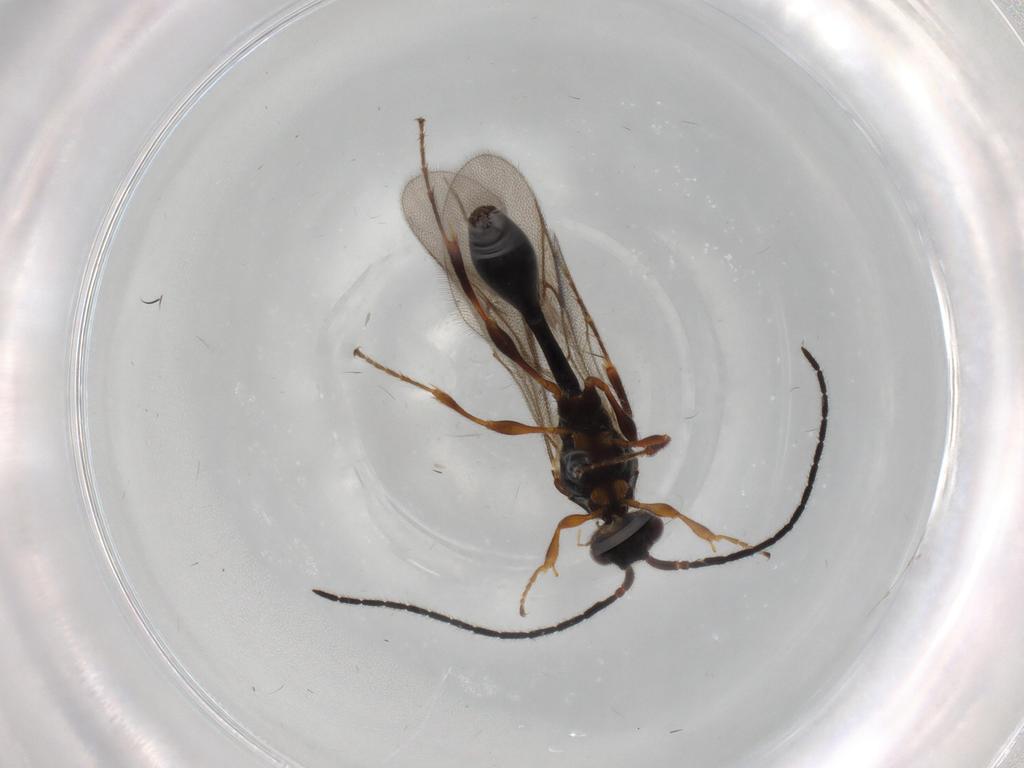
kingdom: Animalia
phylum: Arthropoda
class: Insecta
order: Hymenoptera
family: Diapriidae
